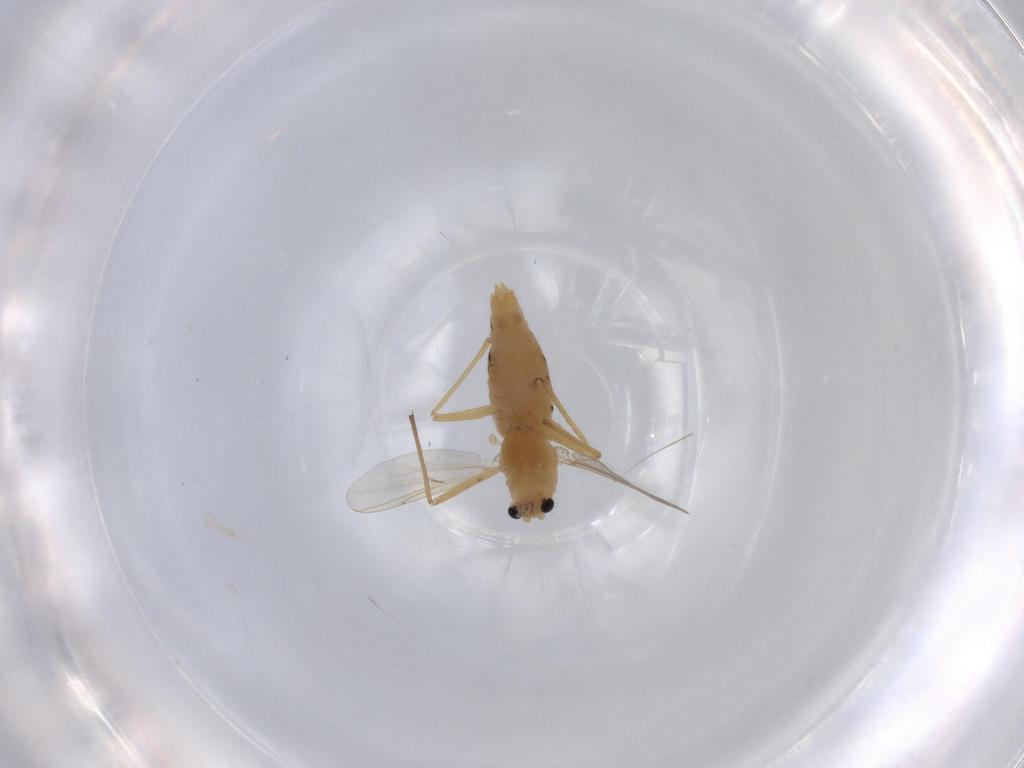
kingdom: Animalia
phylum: Arthropoda
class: Insecta
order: Diptera
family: Chironomidae
